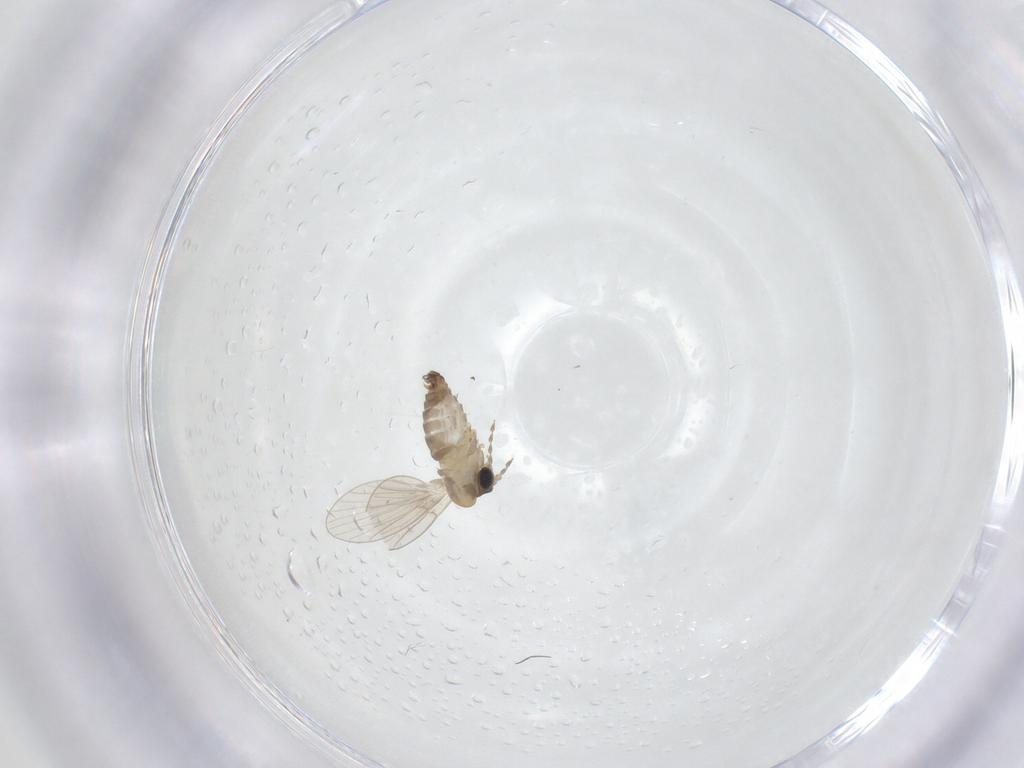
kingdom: Animalia
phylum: Arthropoda
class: Insecta
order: Diptera
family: Psychodidae
